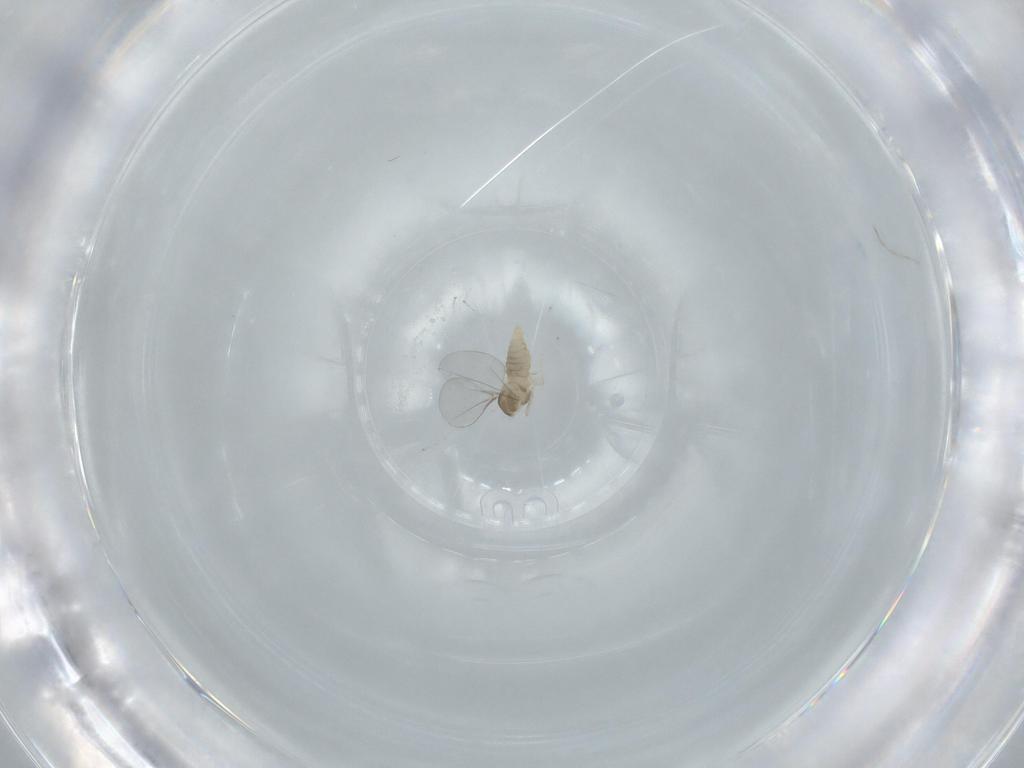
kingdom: Animalia
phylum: Arthropoda
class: Insecta
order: Diptera
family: Cecidomyiidae
